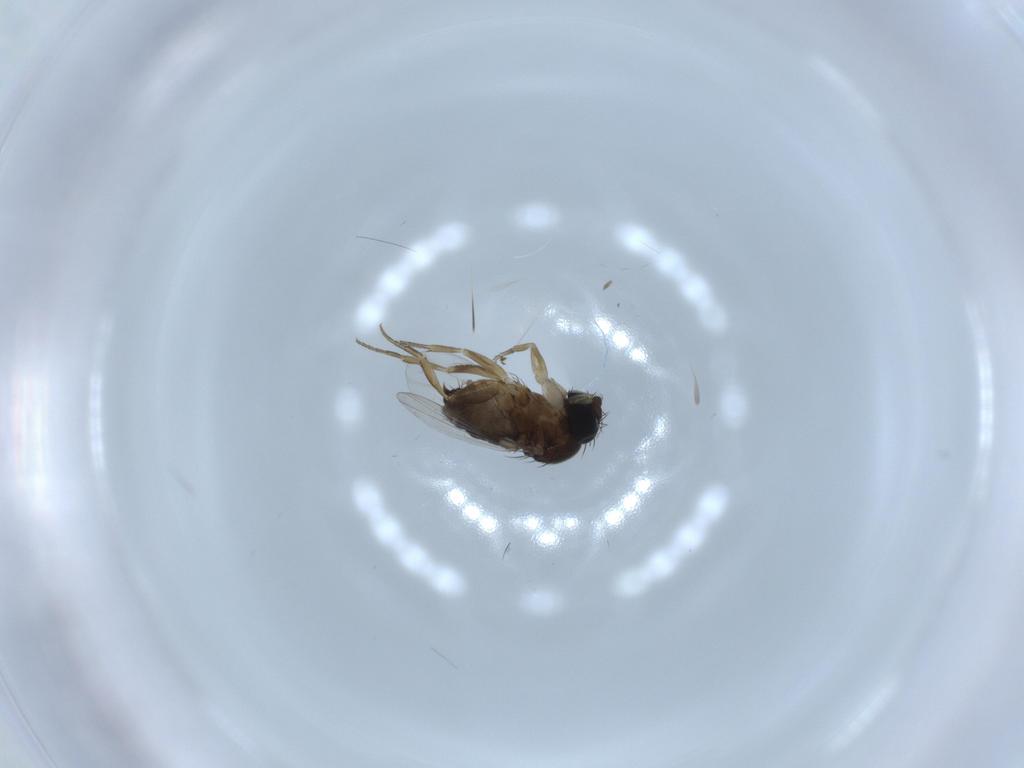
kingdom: Animalia
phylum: Arthropoda
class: Insecta
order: Diptera
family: Phoridae
